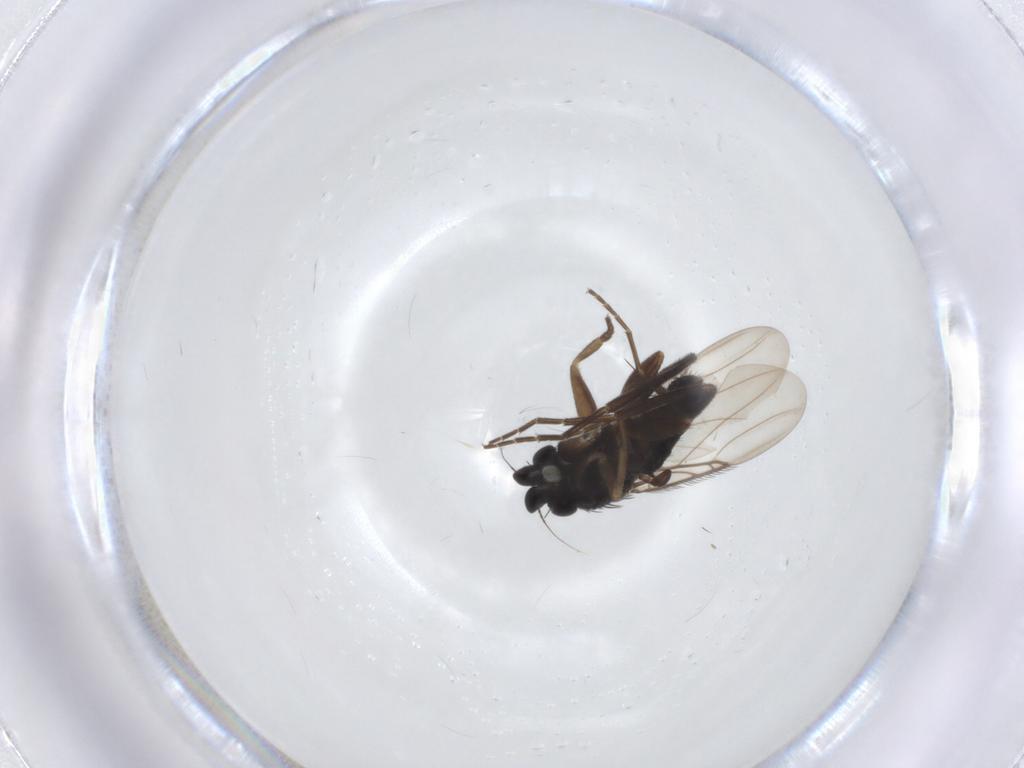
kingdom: Animalia
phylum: Arthropoda
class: Insecta
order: Diptera
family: Phoridae
